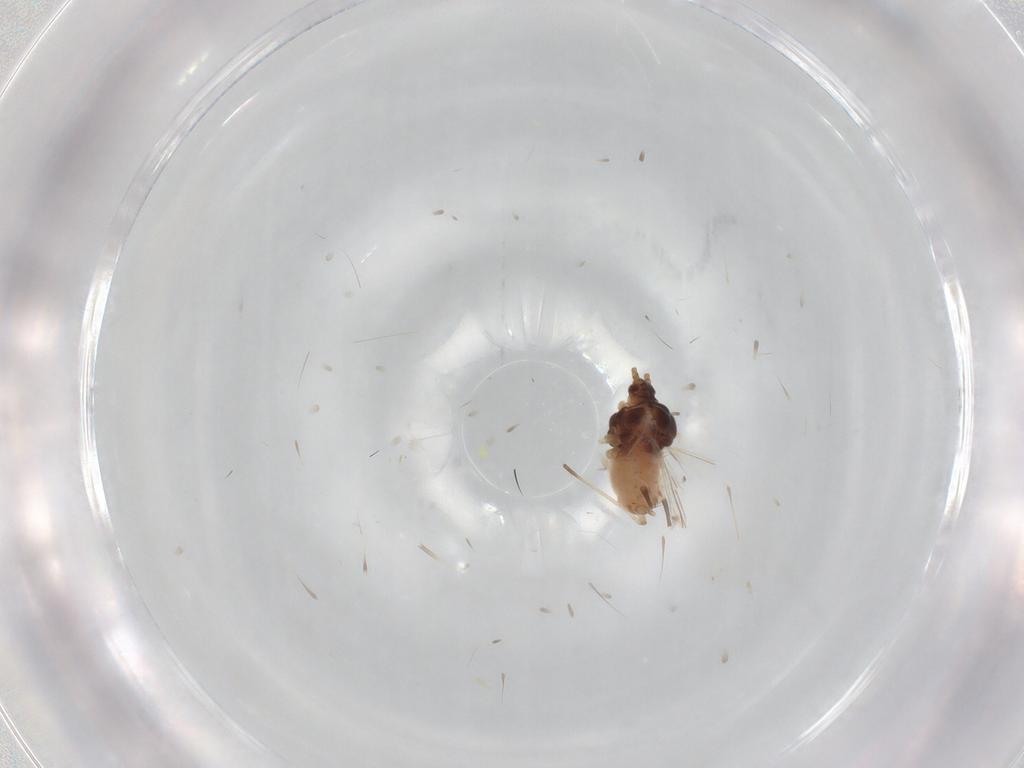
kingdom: Animalia
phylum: Arthropoda
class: Insecta
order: Hemiptera
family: Aphididae
